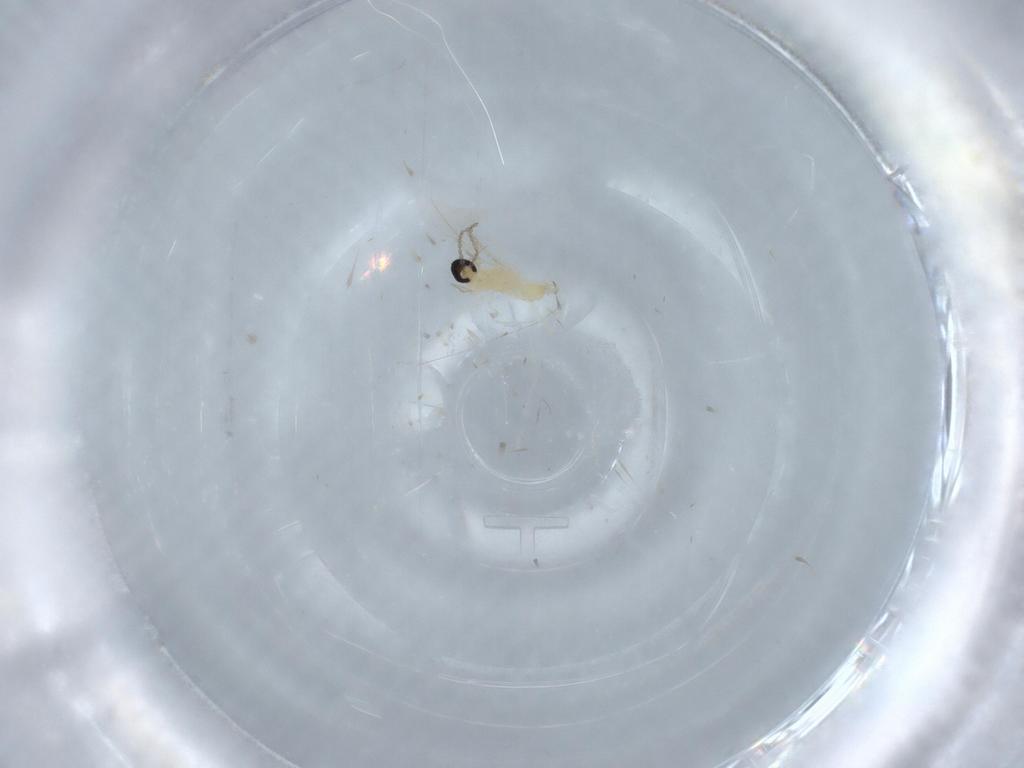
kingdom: Animalia
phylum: Arthropoda
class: Insecta
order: Diptera
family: Cecidomyiidae
